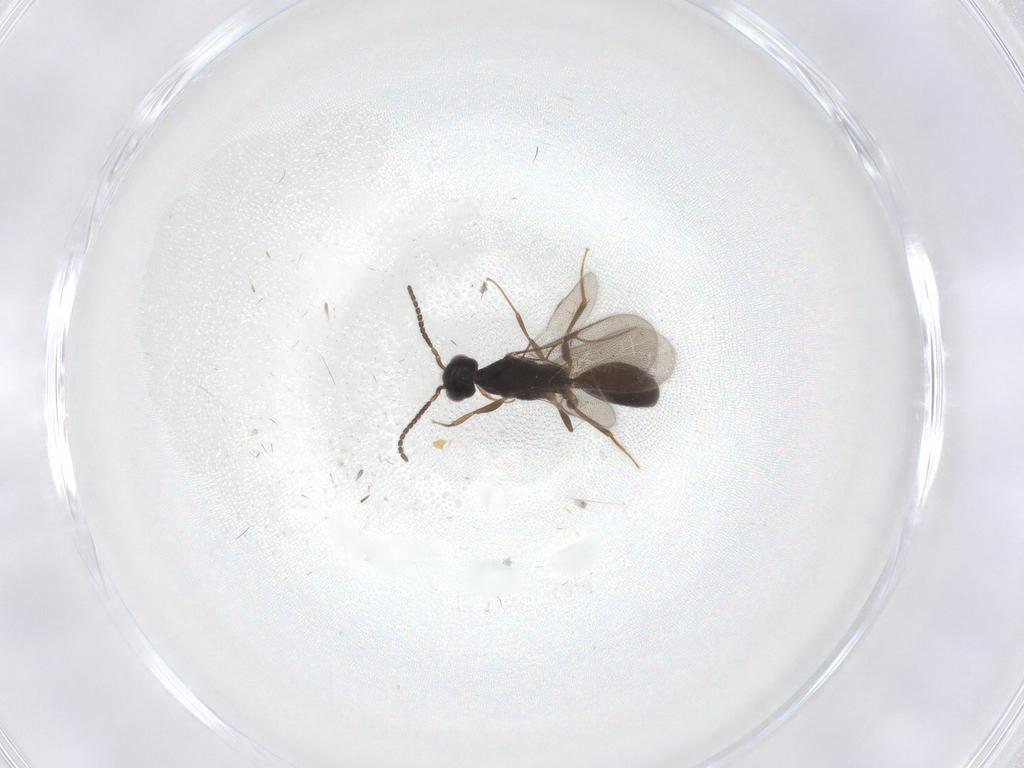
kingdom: Animalia
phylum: Arthropoda
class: Insecta
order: Hymenoptera
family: Bethylidae
